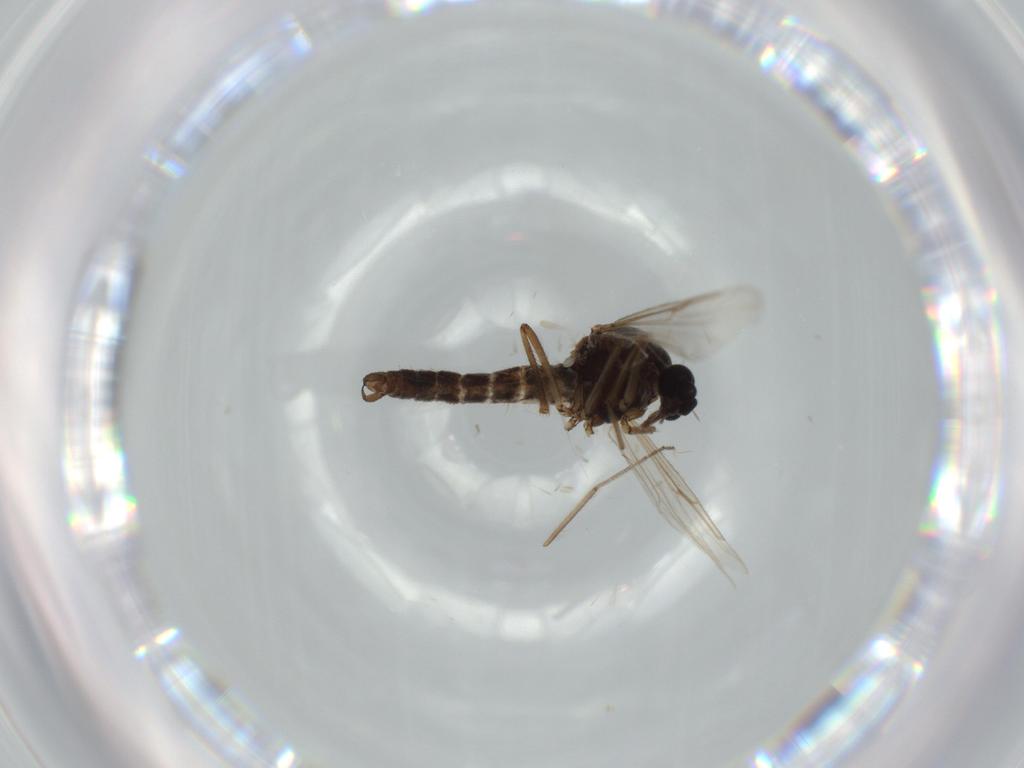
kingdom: Animalia
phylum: Arthropoda
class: Insecta
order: Diptera
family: Ceratopogonidae
